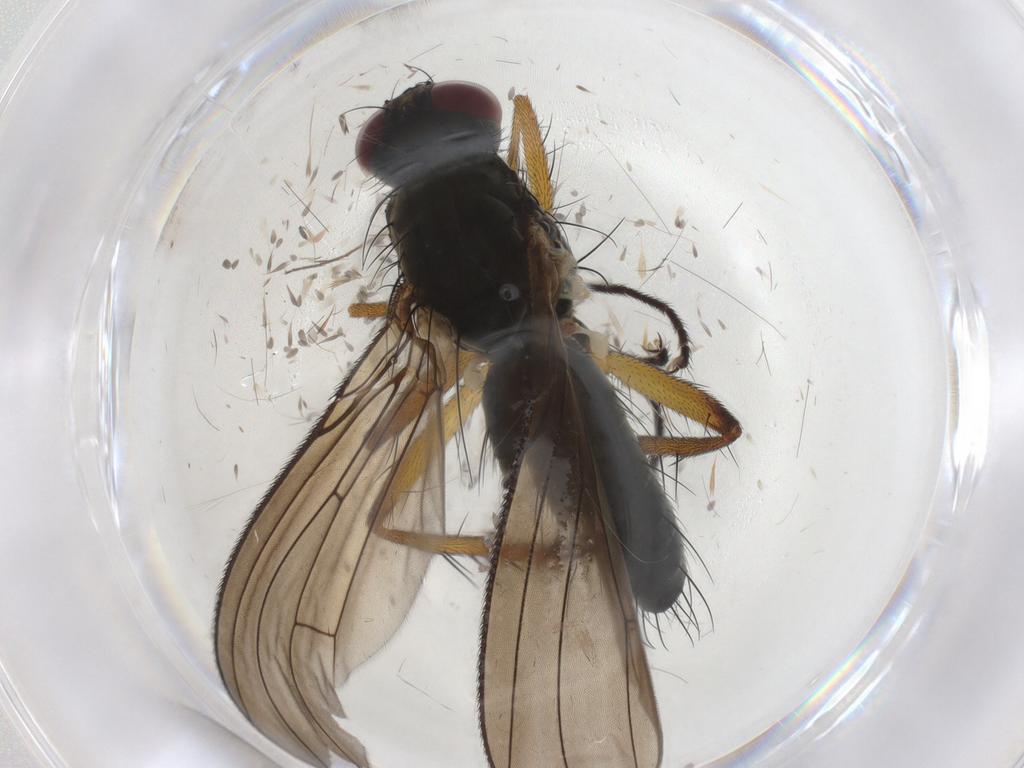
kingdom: Animalia
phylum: Arthropoda
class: Insecta
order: Diptera
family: Muscidae
